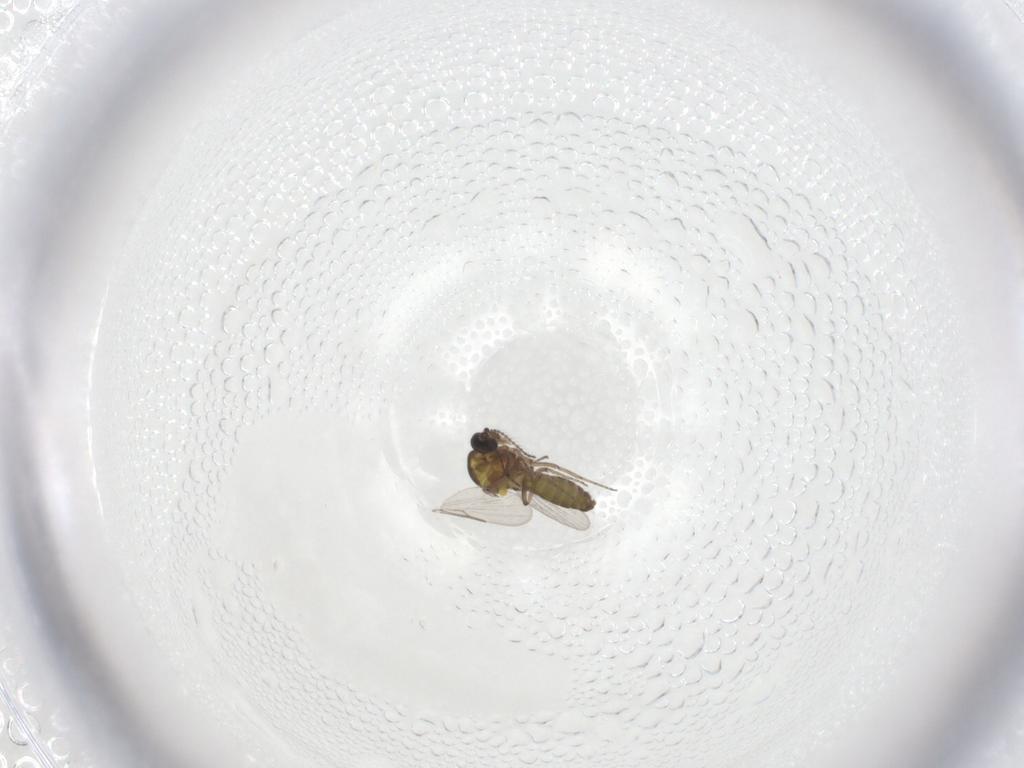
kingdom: Animalia
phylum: Arthropoda
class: Insecta
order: Diptera
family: Ceratopogonidae
